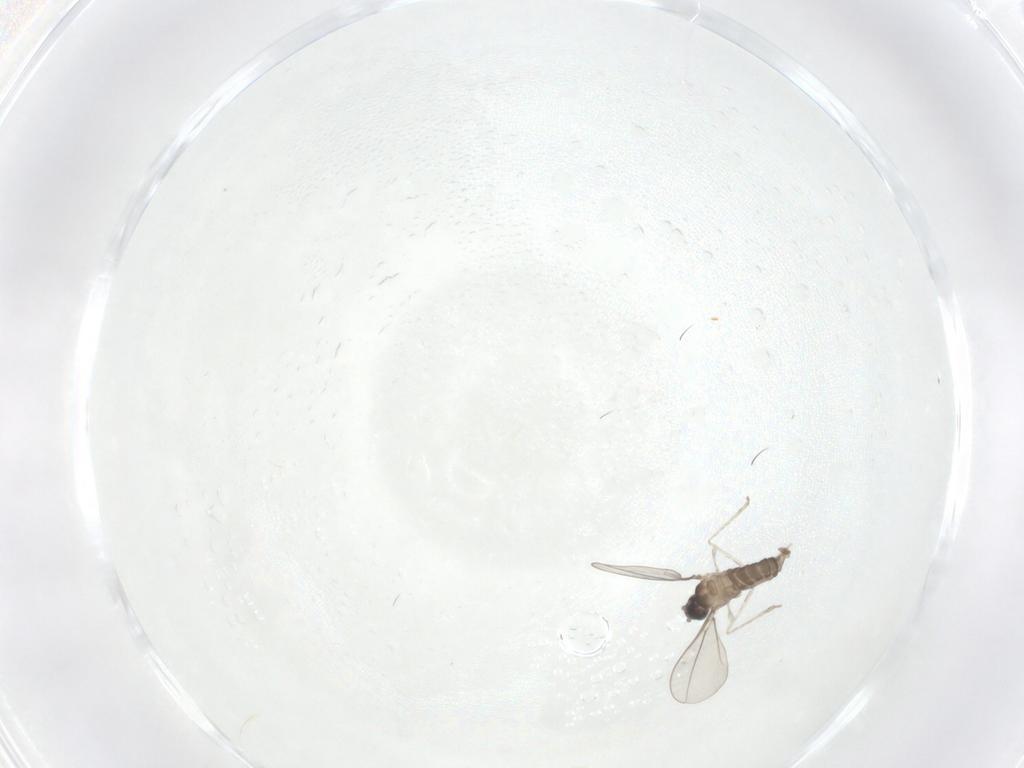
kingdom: Animalia
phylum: Arthropoda
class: Insecta
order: Diptera
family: Cecidomyiidae
